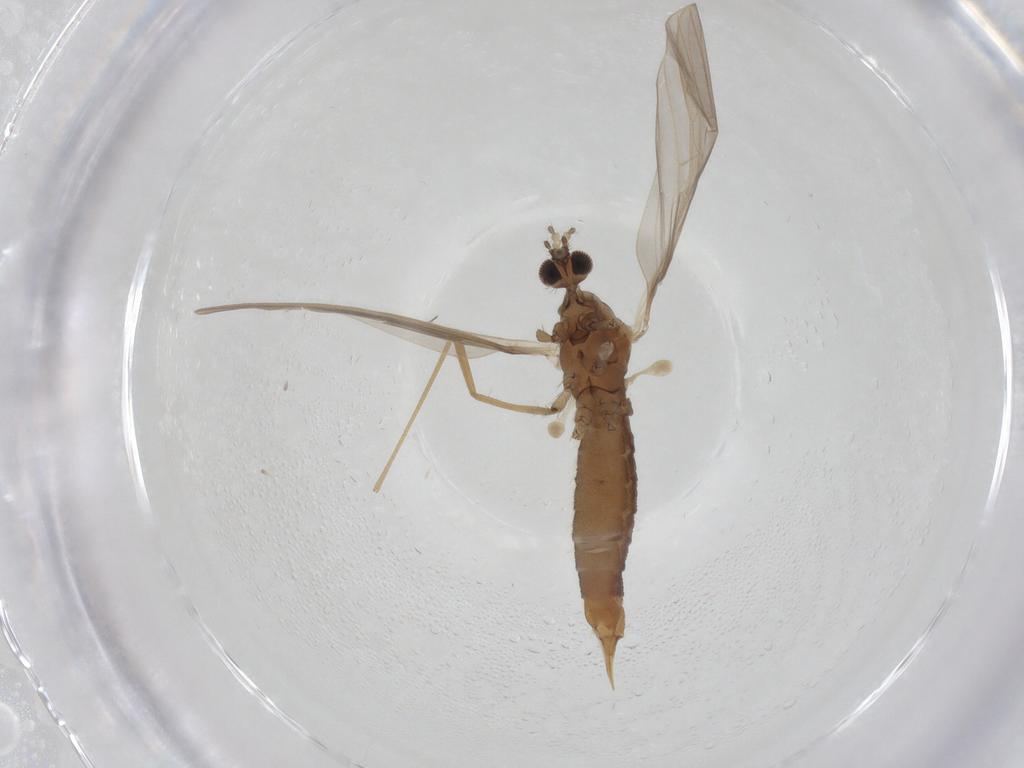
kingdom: Animalia
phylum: Arthropoda
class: Insecta
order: Diptera
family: Limoniidae
